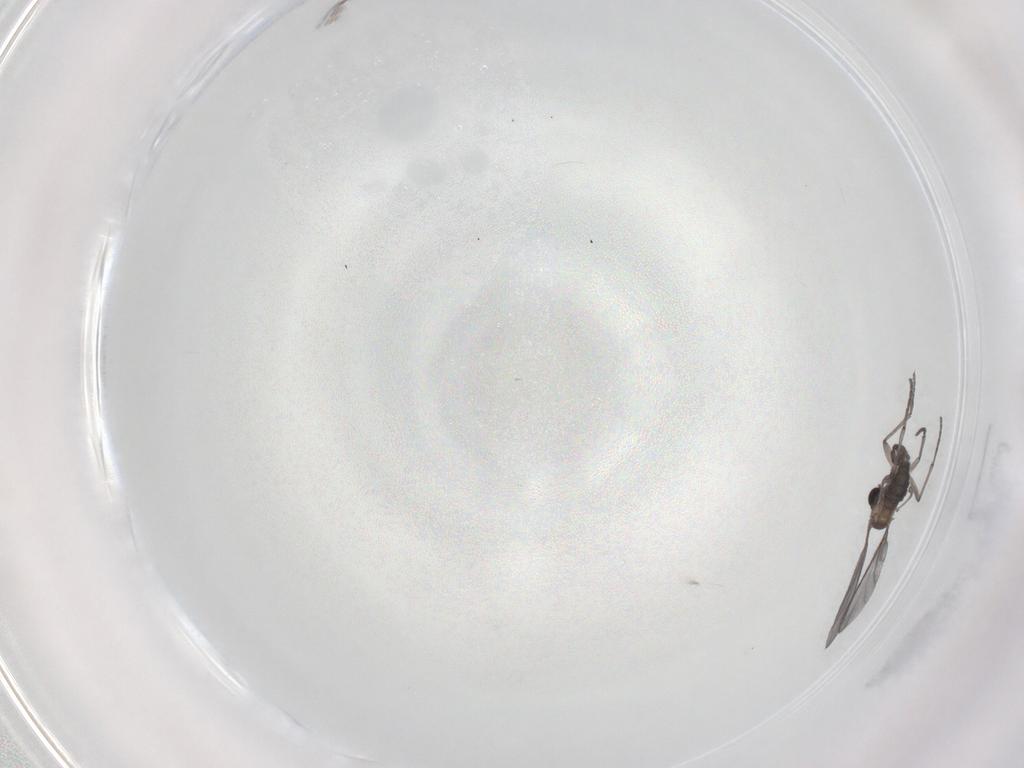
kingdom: Animalia
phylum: Arthropoda
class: Insecta
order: Diptera
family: Sciaridae
